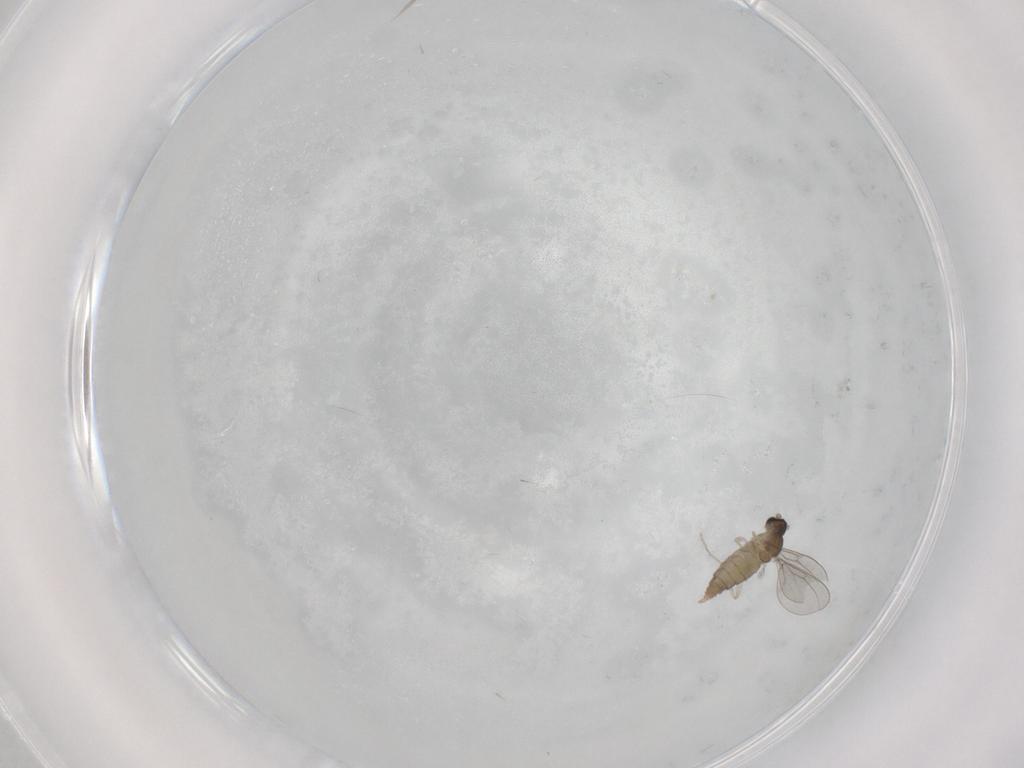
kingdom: Animalia
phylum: Arthropoda
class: Insecta
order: Diptera
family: Cecidomyiidae
